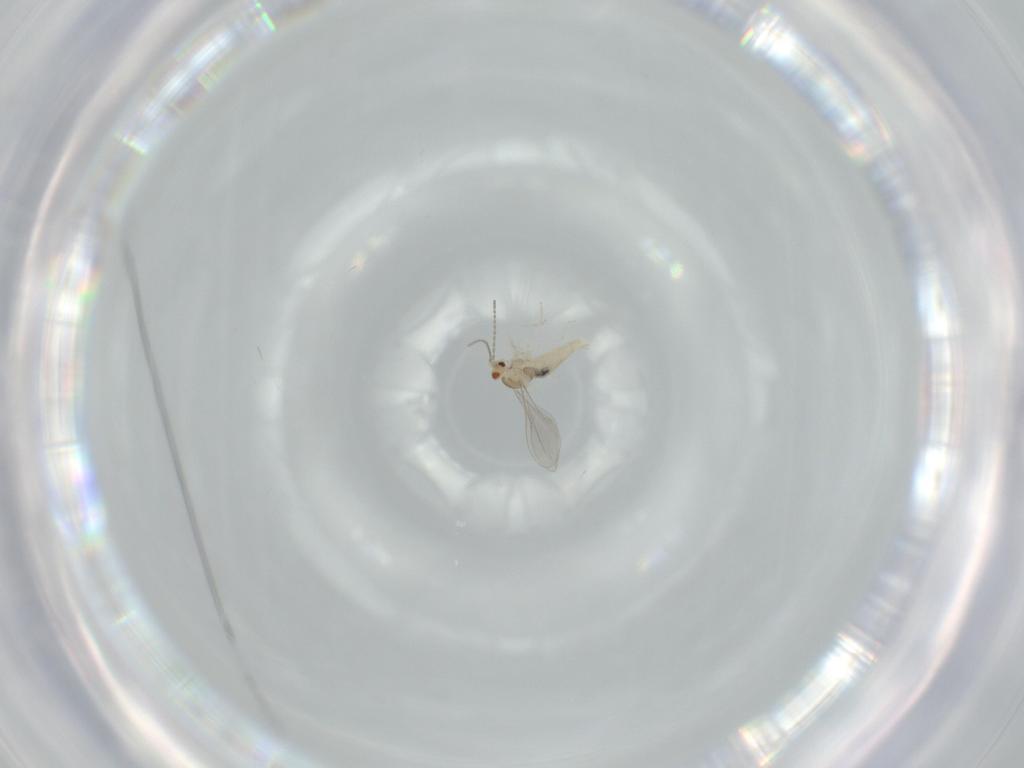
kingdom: Animalia
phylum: Arthropoda
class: Insecta
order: Diptera
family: Cecidomyiidae
